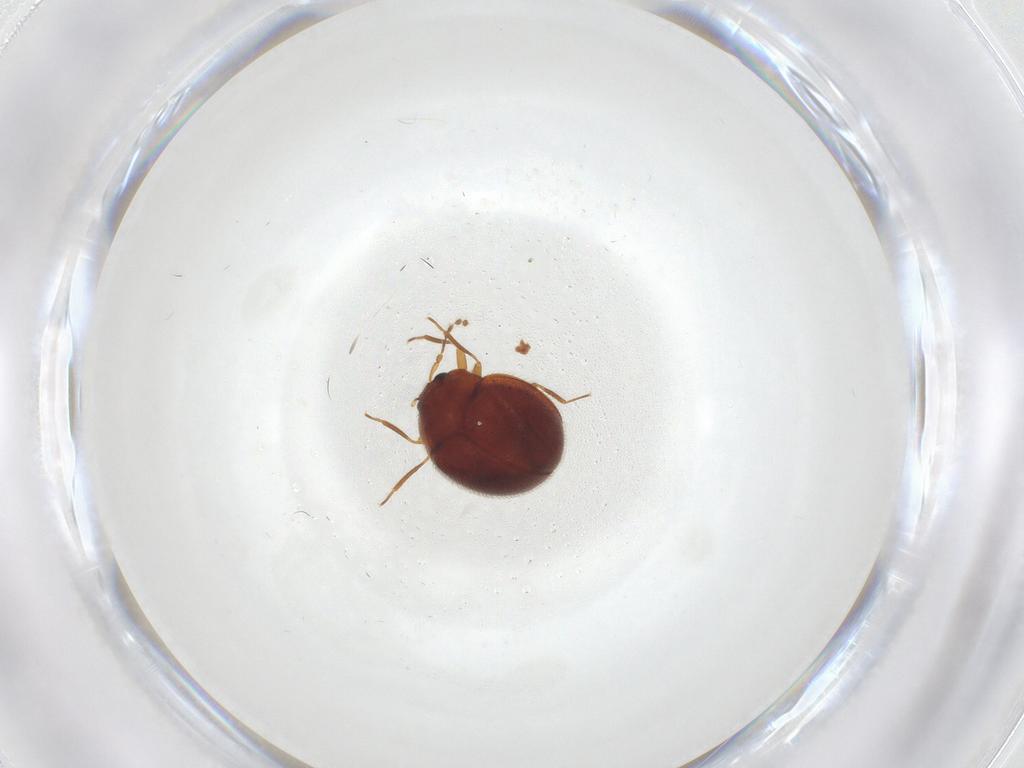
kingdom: Animalia
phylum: Arthropoda
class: Insecta
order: Coleoptera
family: Anamorphidae
